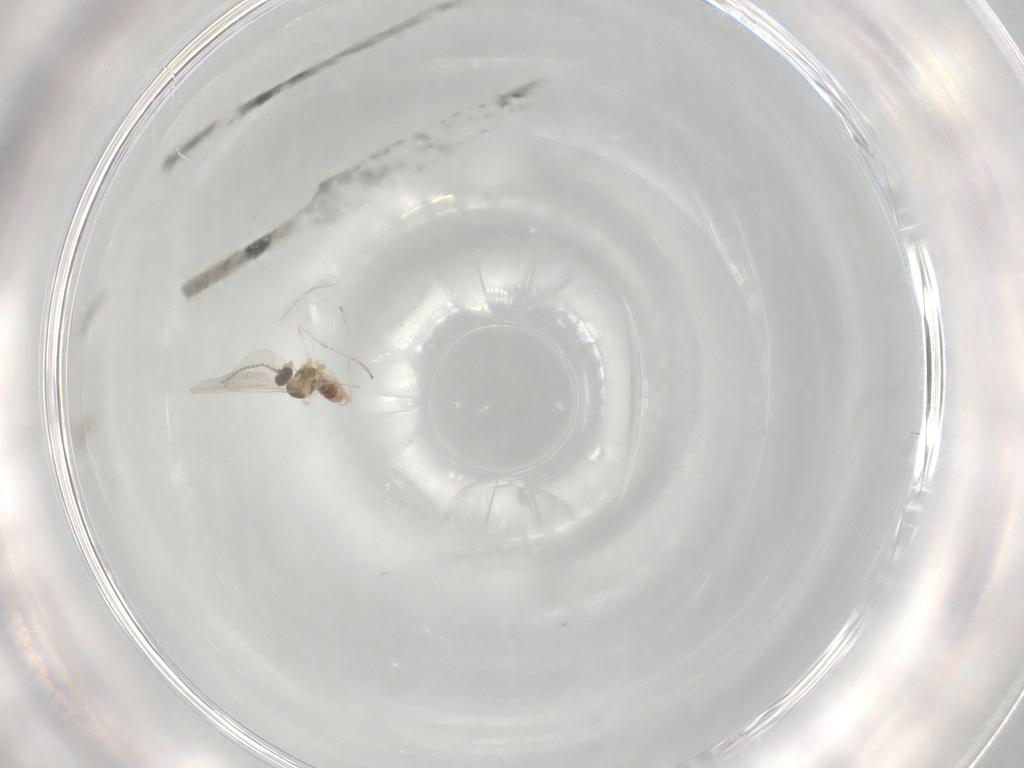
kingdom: Animalia
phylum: Arthropoda
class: Insecta
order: Diptera
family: Cecidomyiidae
